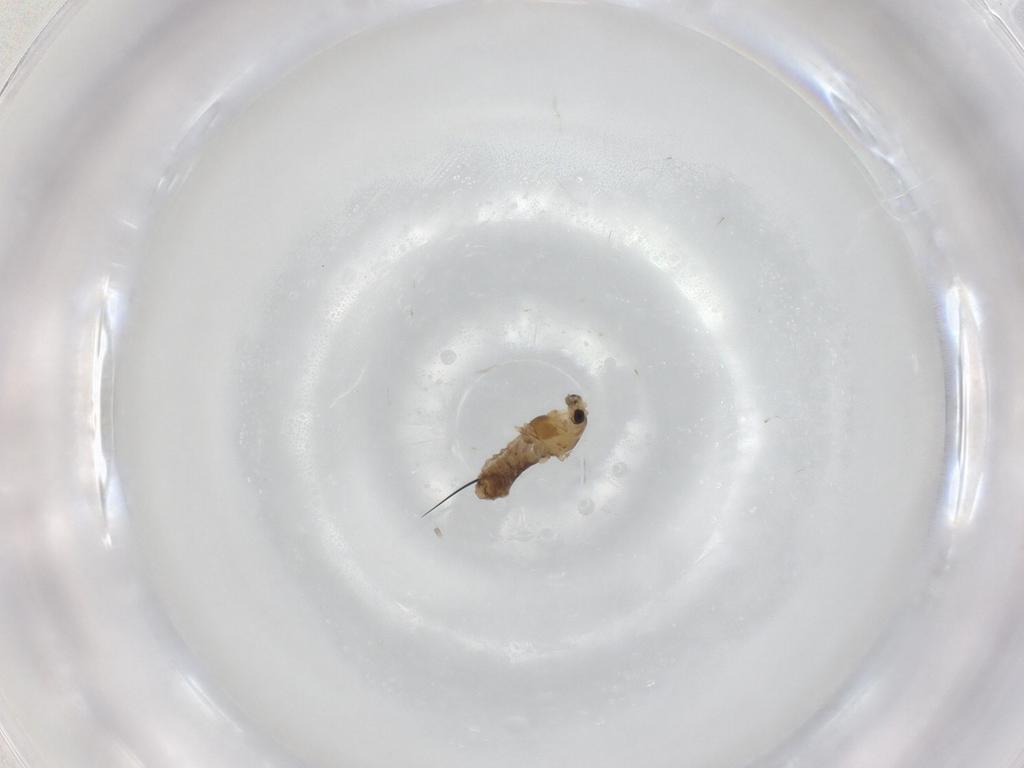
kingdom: Animalia
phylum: Arthropoda
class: Insecta
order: Diptera
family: Chironomidae
